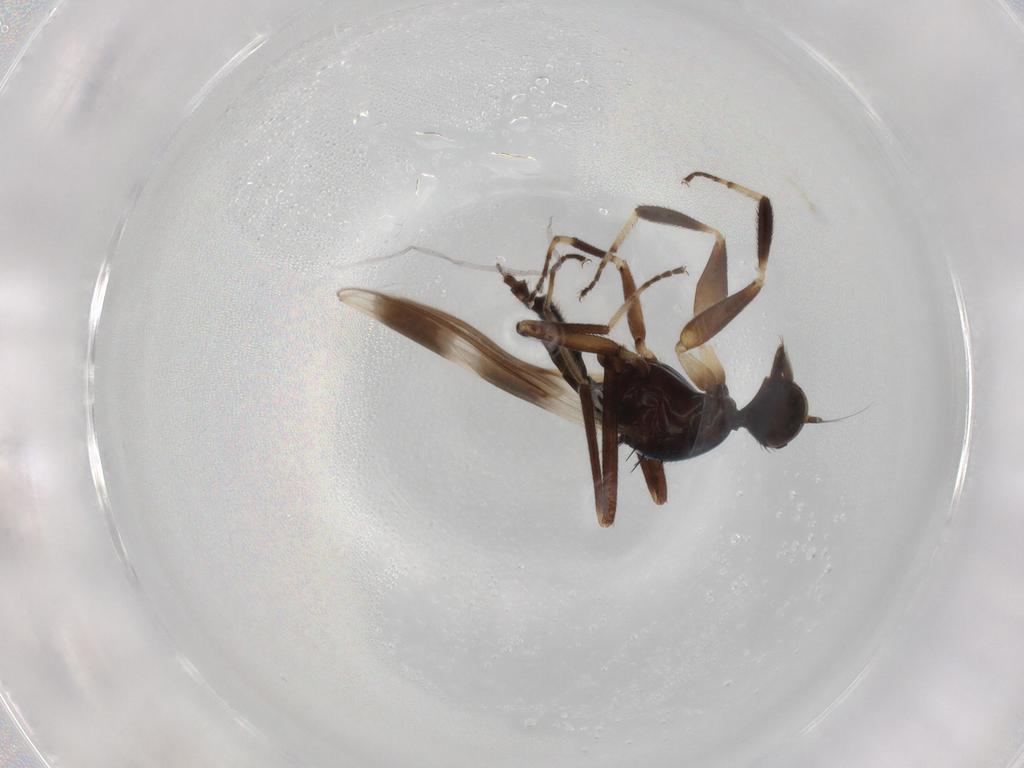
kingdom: Animalia
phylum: Arthropoda
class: Insecta
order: Diptera
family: Hybotidae
